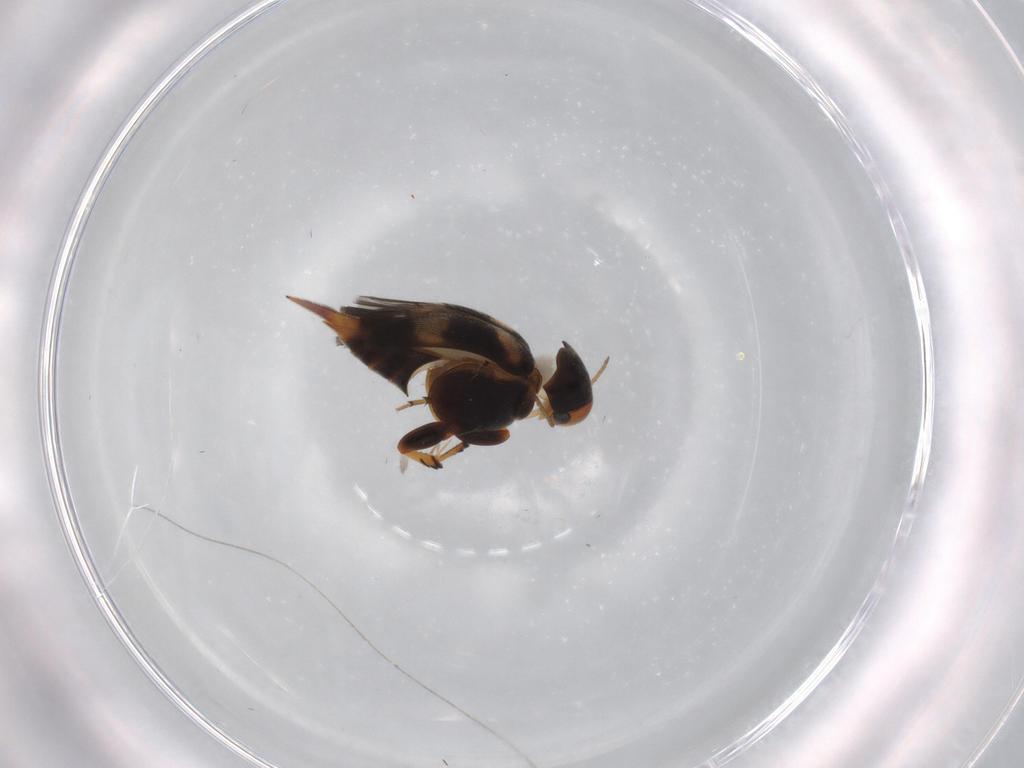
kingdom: Animalia
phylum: Arthropoda
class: Insecta
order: Coleoptera
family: Mordellidae
